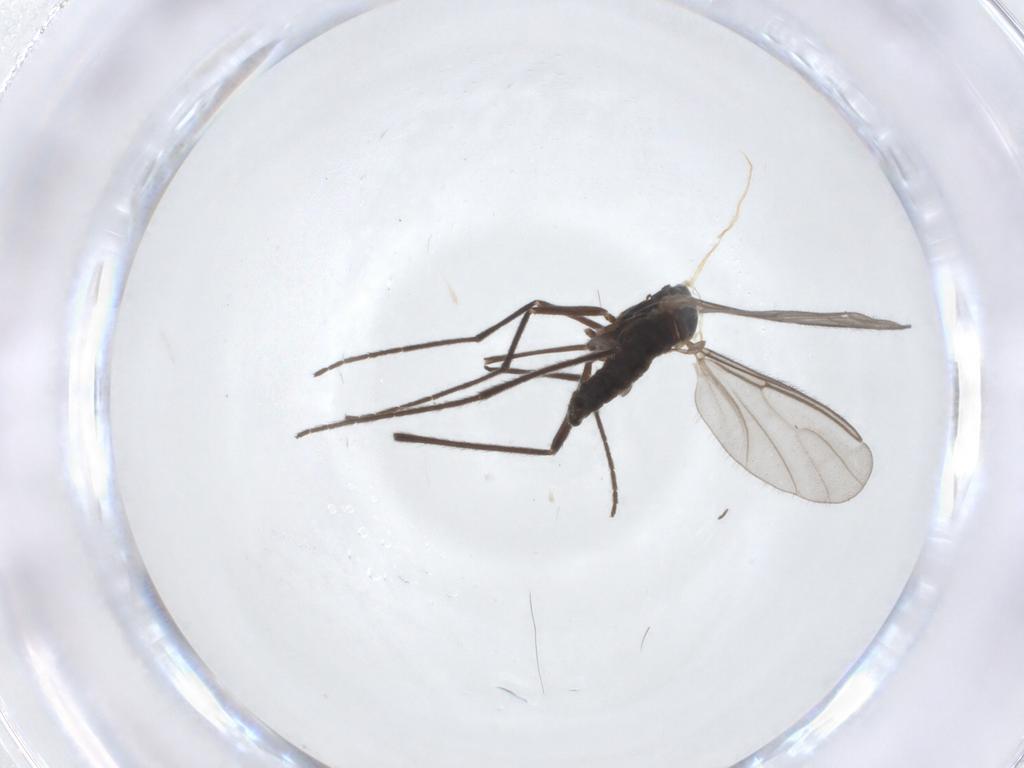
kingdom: Animalia
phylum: Arthropoda
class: Insecta
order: Diptera
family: Cecidomyiidae
